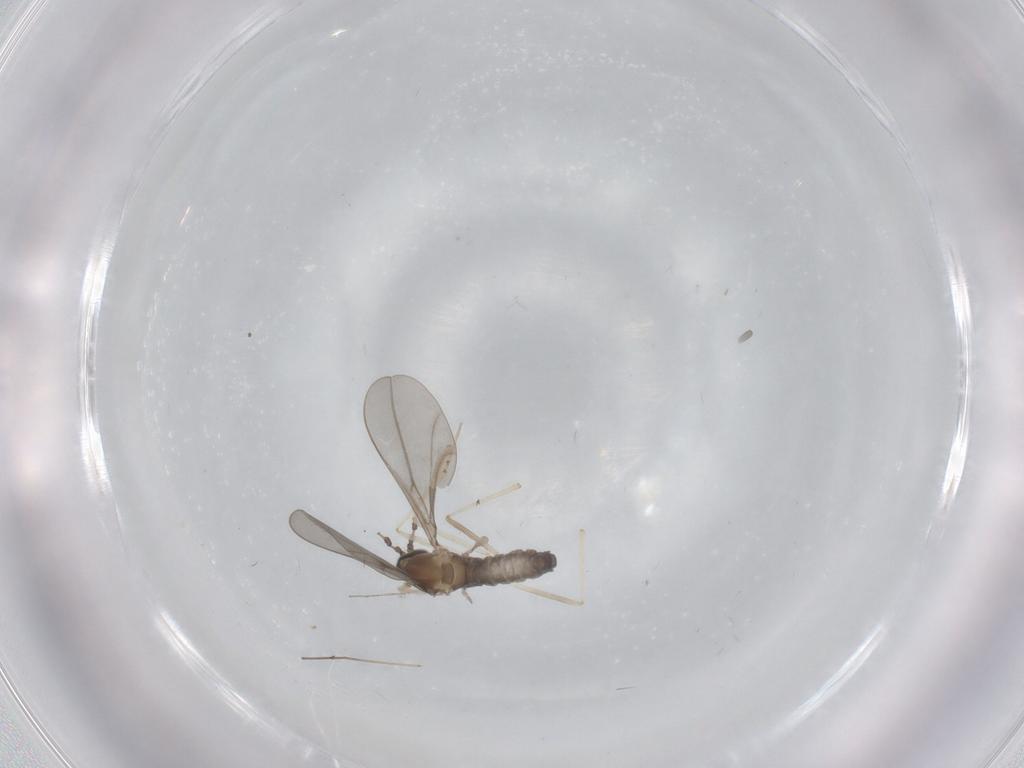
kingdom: Animalia
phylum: Arthropoda
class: Insecta
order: Diptera
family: Cecidomyiidae
